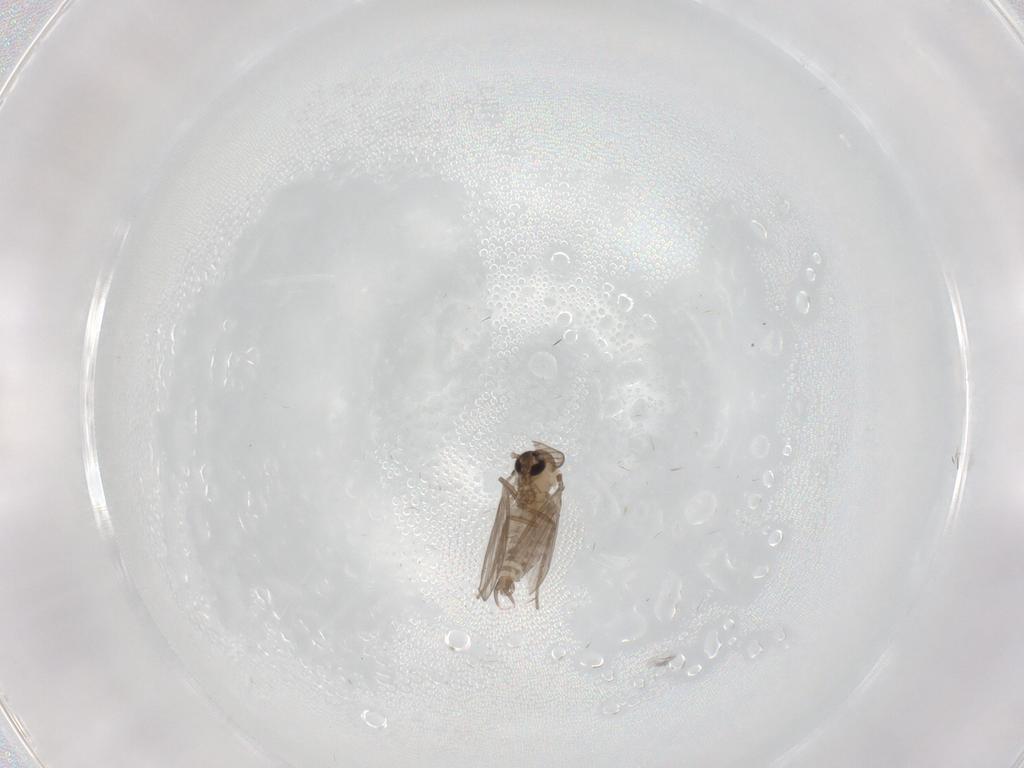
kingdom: Animalia
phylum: Arthropoda
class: Insecta
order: Diptera
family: Psychodidae
